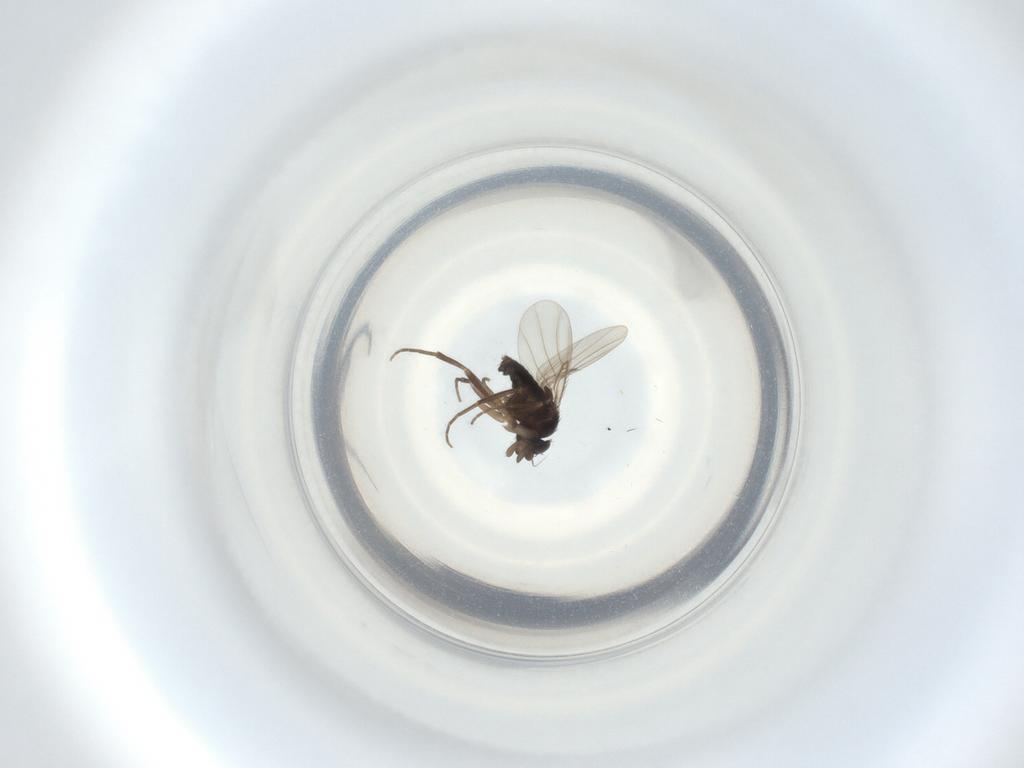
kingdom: Animalia
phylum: Arthropoda
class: Insecta
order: Diptera
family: Phoridae
